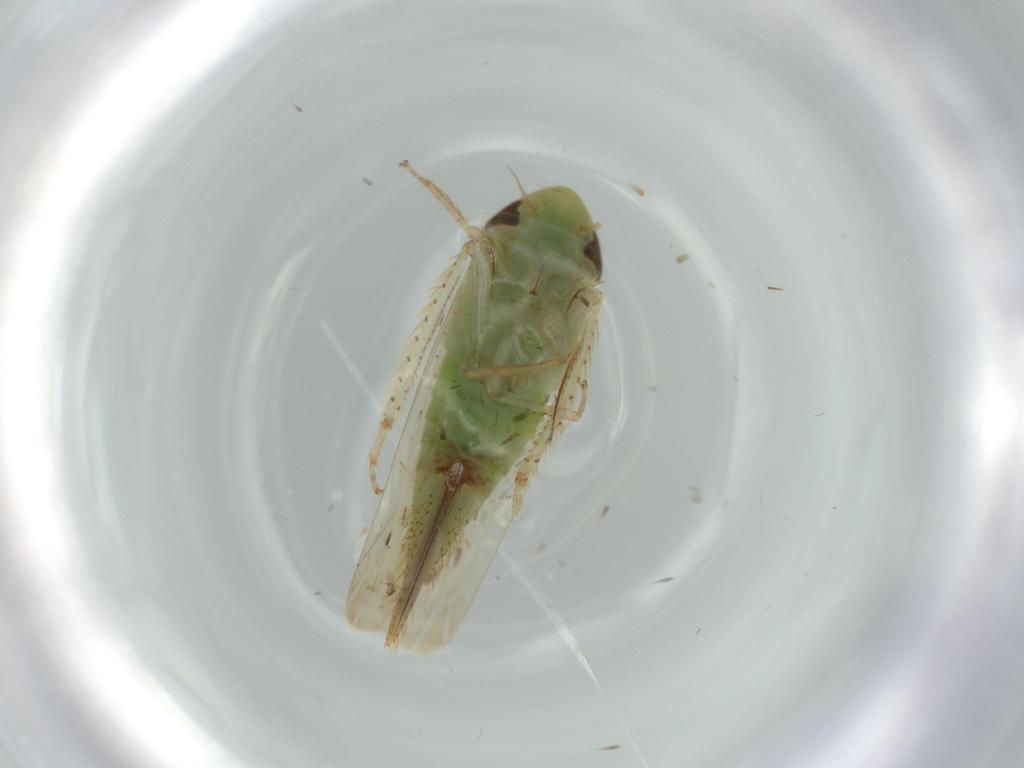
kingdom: Animalia
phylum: Arthropoda
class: Insecta
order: Hemiptera
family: Cicadellidae
